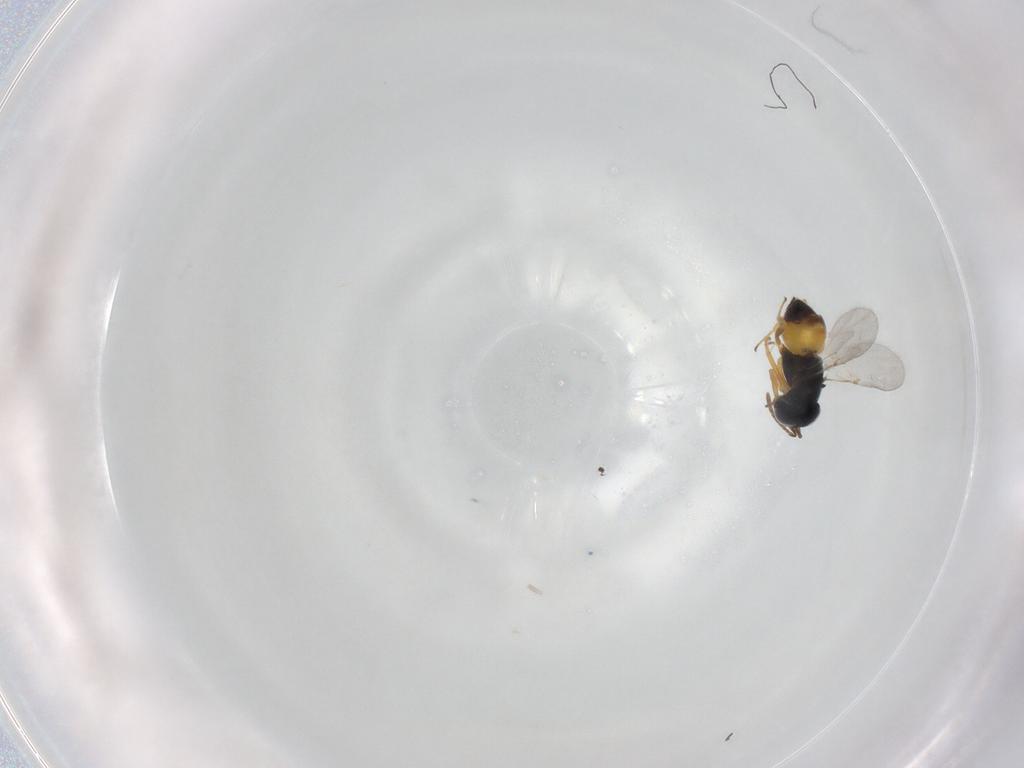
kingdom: Animalia
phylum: Arthropoda
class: Insecta
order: Hymenoptera
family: Encyrtidae
